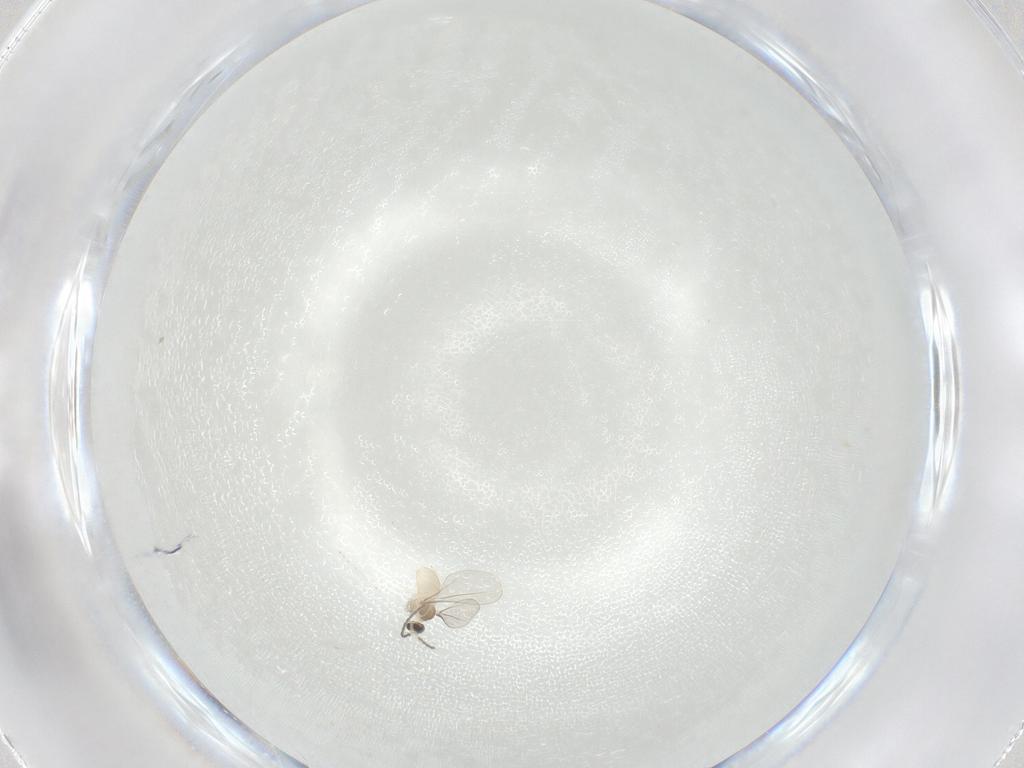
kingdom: Animalia
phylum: Arthropoda
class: Insecta
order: Diptera
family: Cecidomyiidae
